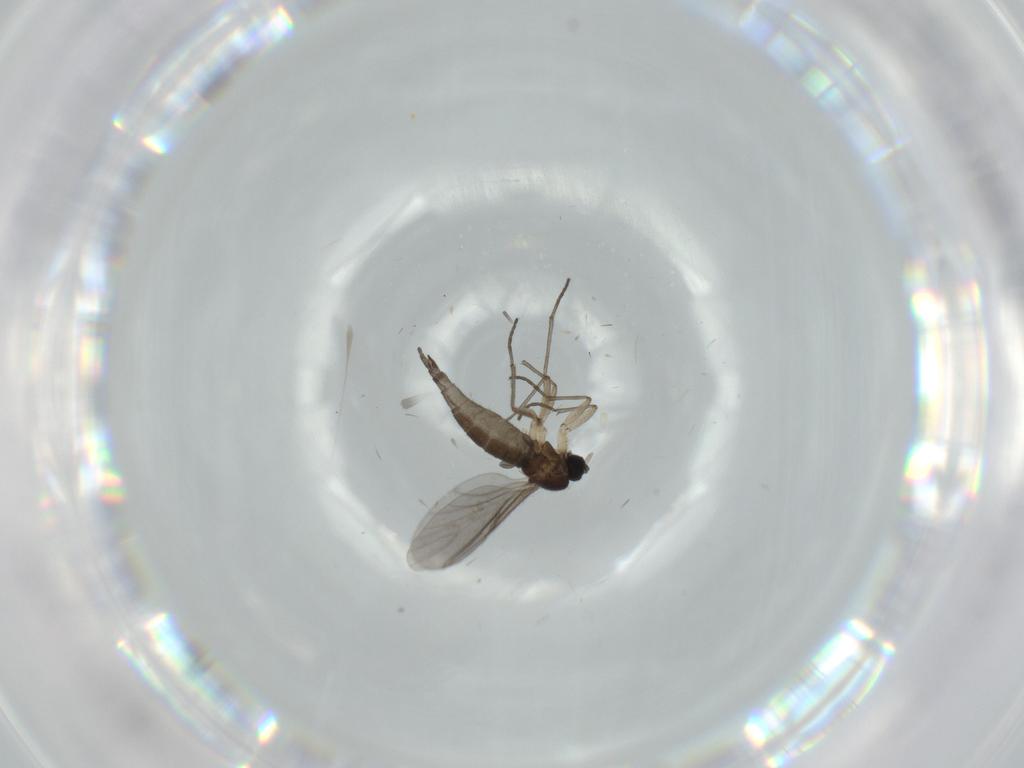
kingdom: Animalia
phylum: Arthropoda
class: Insecta
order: Diptera
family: Sciaridae
